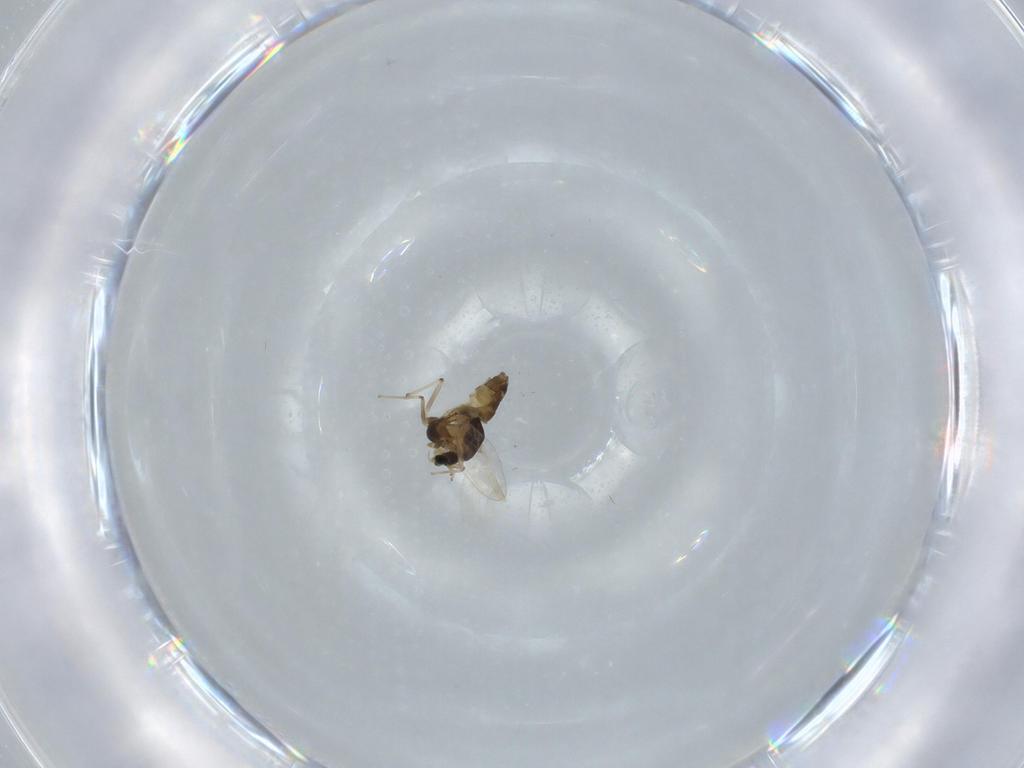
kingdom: Animalia
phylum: Arthropoda
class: Insecta
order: Diptera
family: Chironomidae
